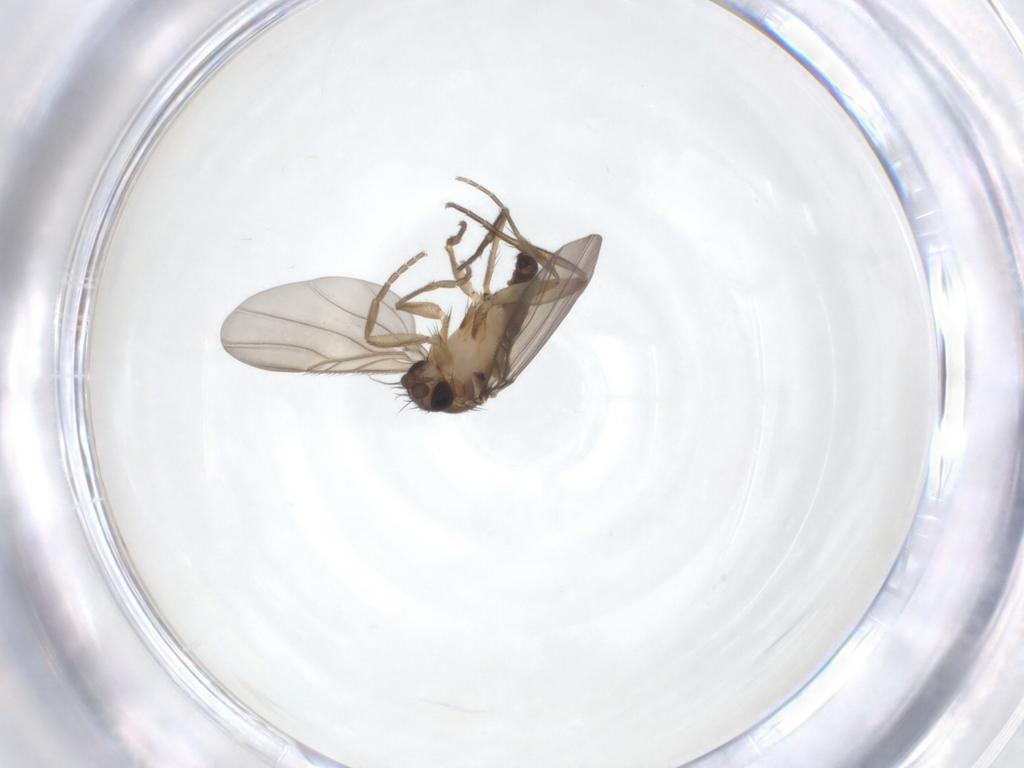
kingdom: Animalia
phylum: Arthropoda
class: Insecta
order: Diptera
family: Phoridae
